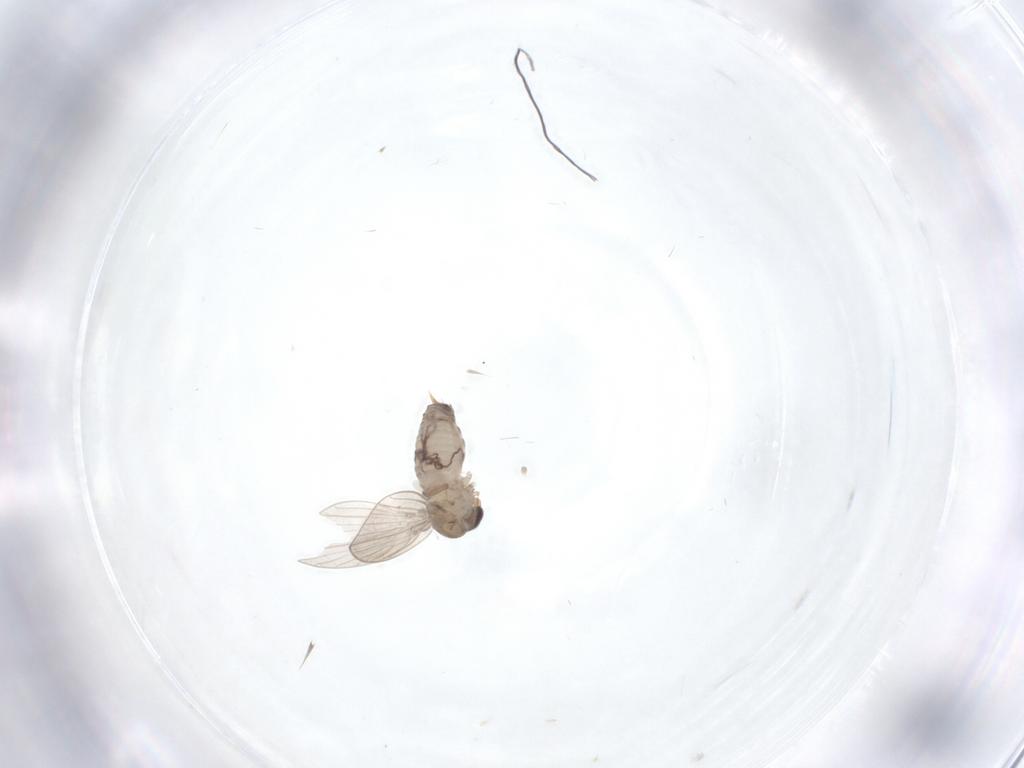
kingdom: Animalia
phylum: Arthropoda
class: Insecta
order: Diptera
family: Psychodidae
